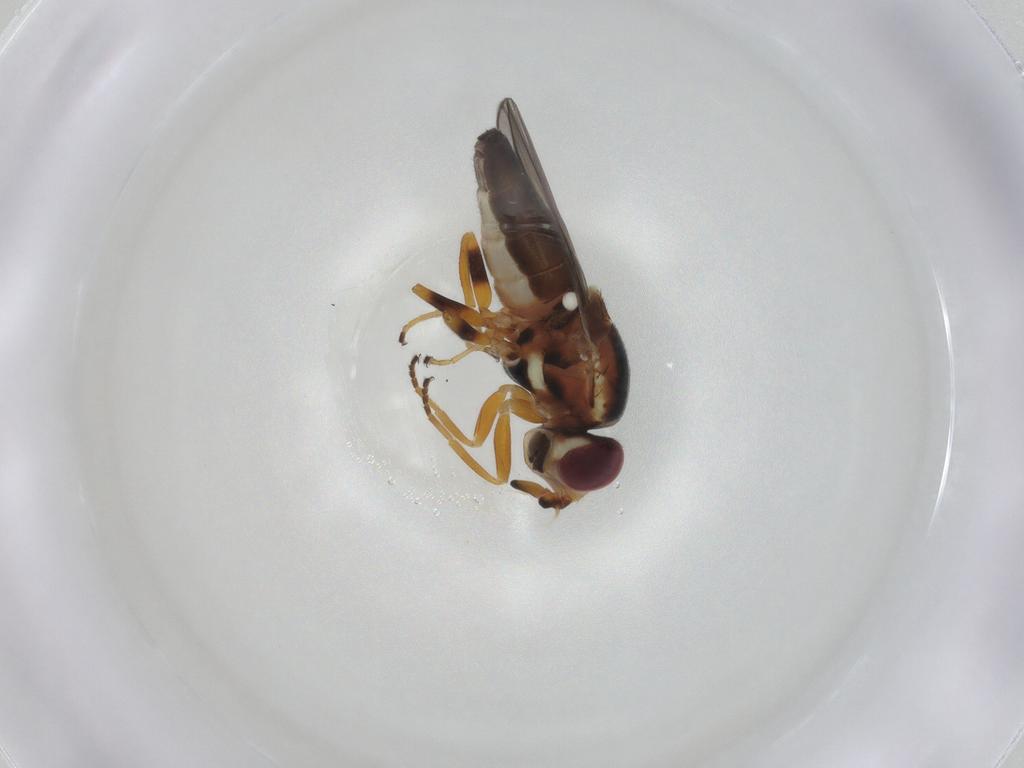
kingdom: Animalia
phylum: Arthropoda
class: Insecta
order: Diptera
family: Chloropidae
